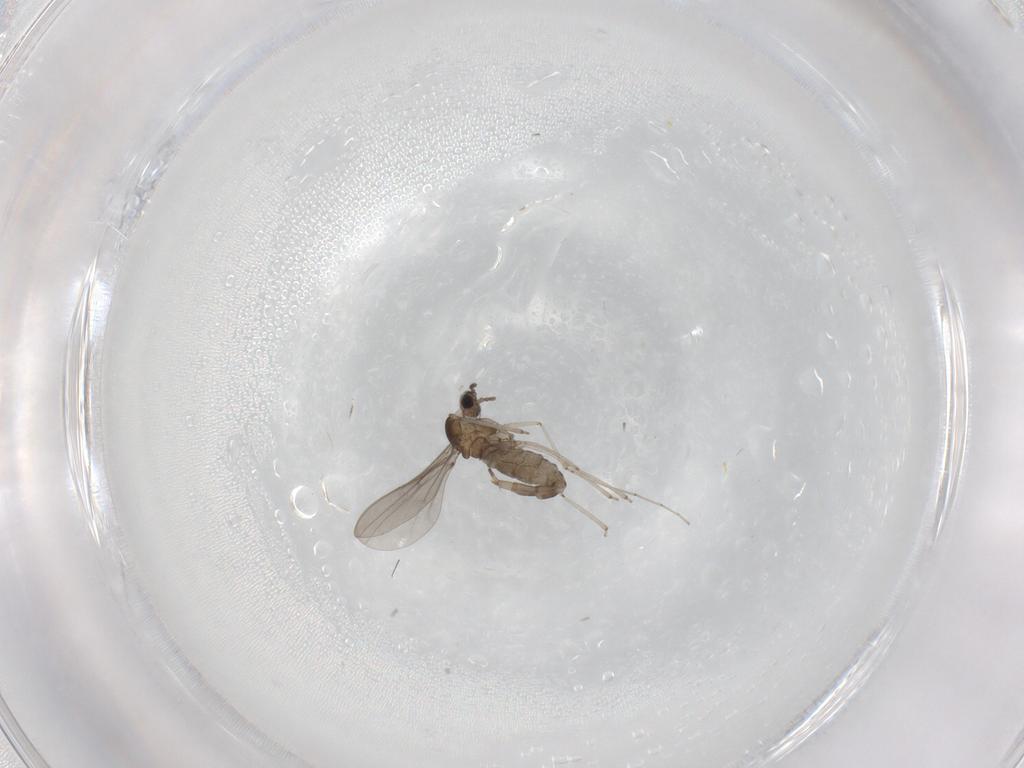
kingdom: Animalia
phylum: Arthropoda
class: Insecta
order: Diptera
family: Cecidomyiidae
